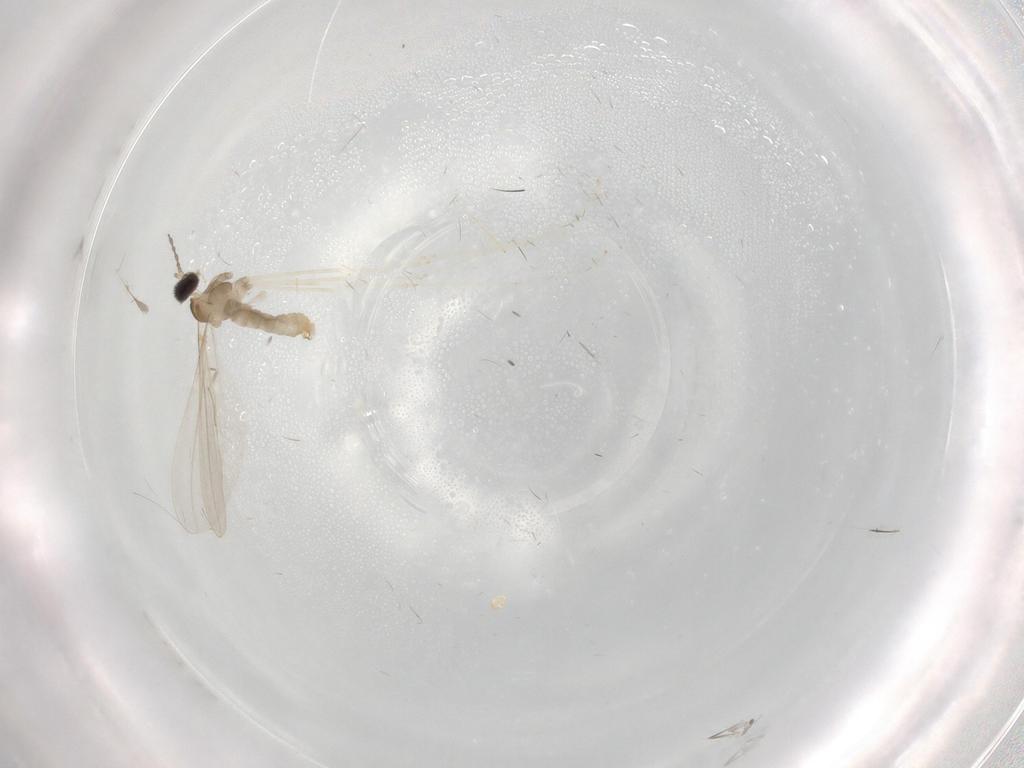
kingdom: Animalia
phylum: Arthropoda
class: Insecta
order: Diptera
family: Cecidomyiidae
